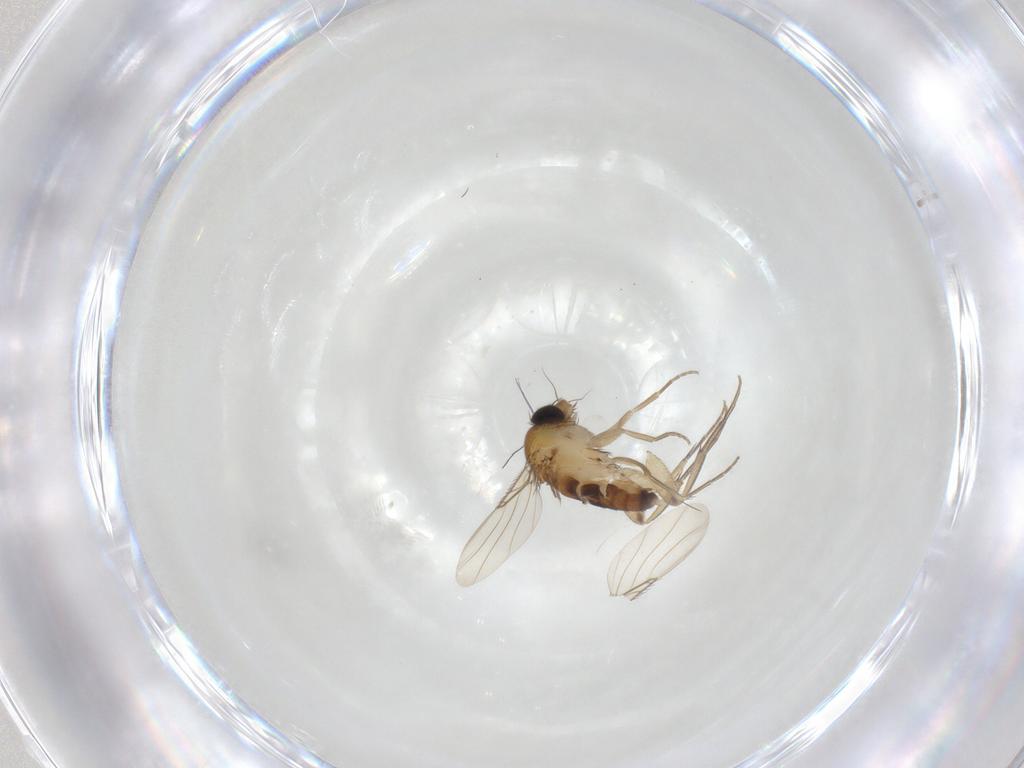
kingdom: Animalia
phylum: Arthropoda
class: Insecta
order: Diptera
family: Phoridae
